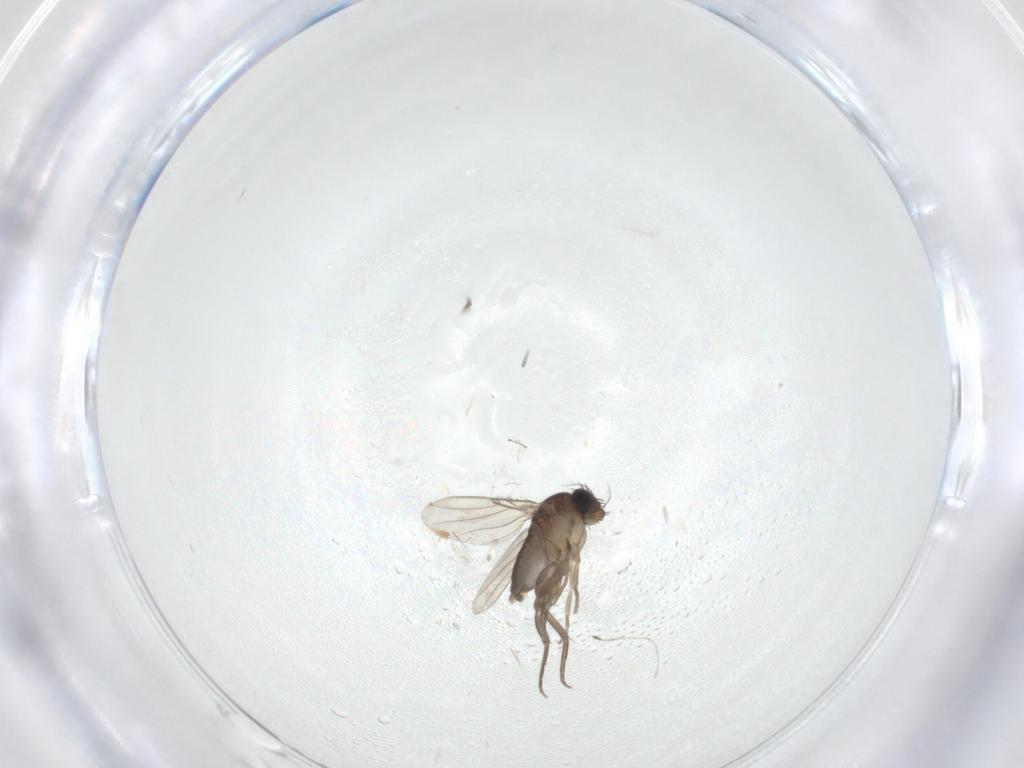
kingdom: Animalia
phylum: Arthropoda
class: Insecta
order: Diptera
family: Phoridae
